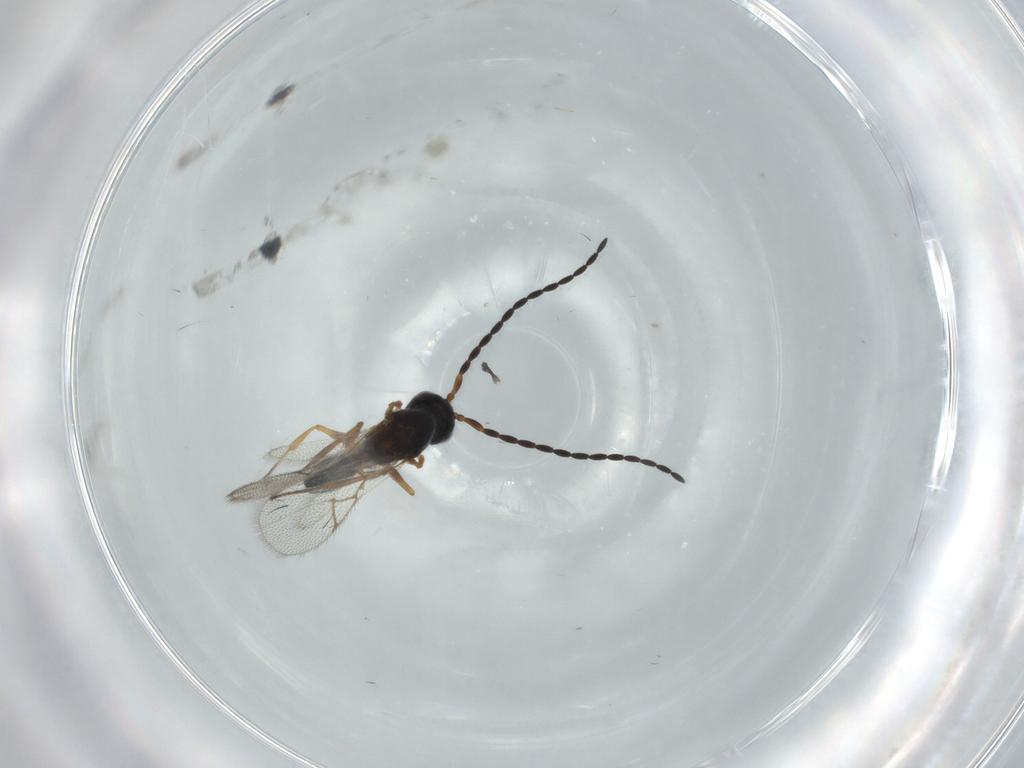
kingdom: Animalia
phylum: Arthropoda
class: Insecta
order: Hymenoptera
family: Figitidae
